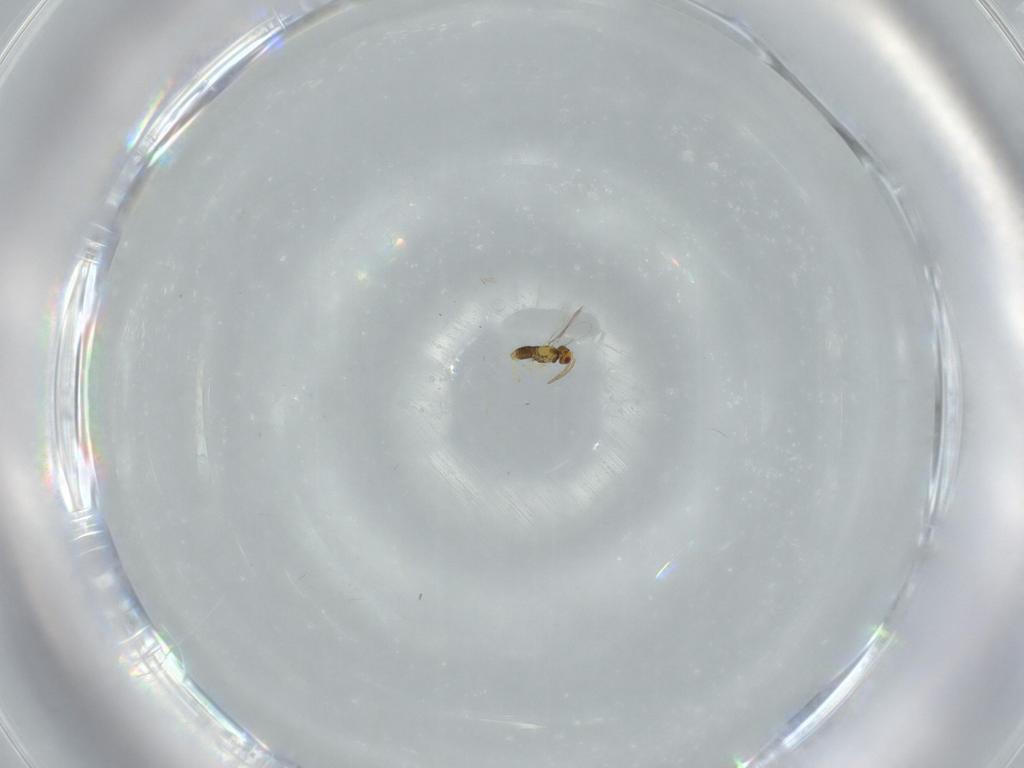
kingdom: Animalia
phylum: Arthropoda
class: Insecta
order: Hymenoptera
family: Aphelinidae
